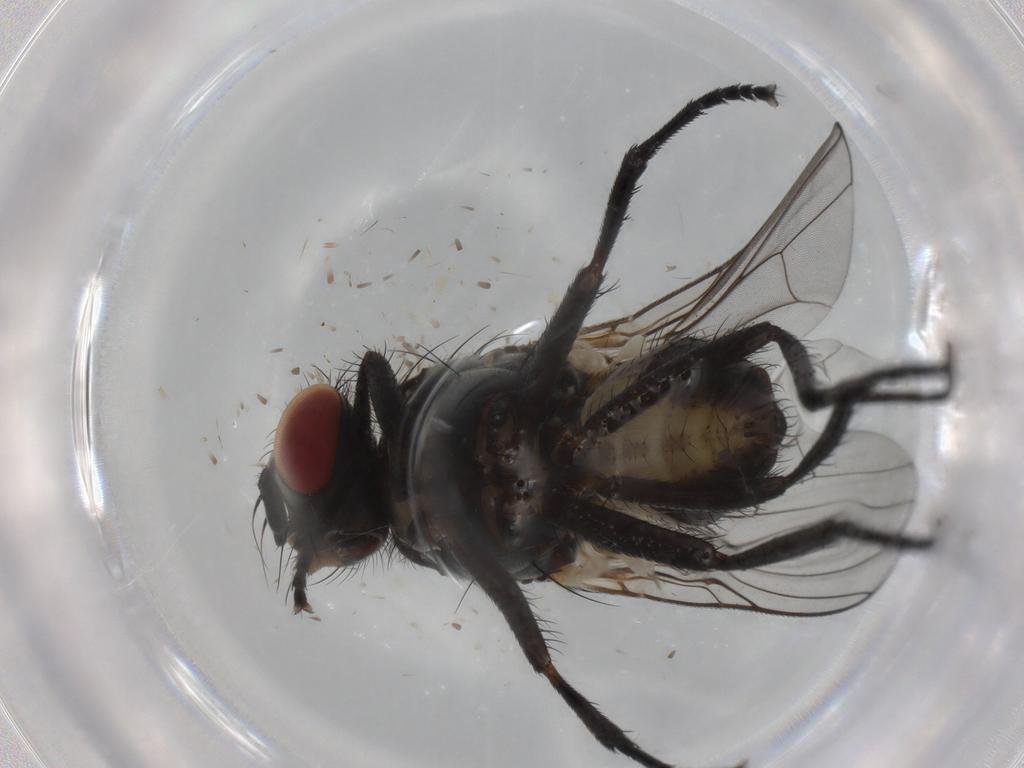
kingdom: Animalia
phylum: Arthropoda
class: Insecta
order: Diptera
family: Anthomyiidae
